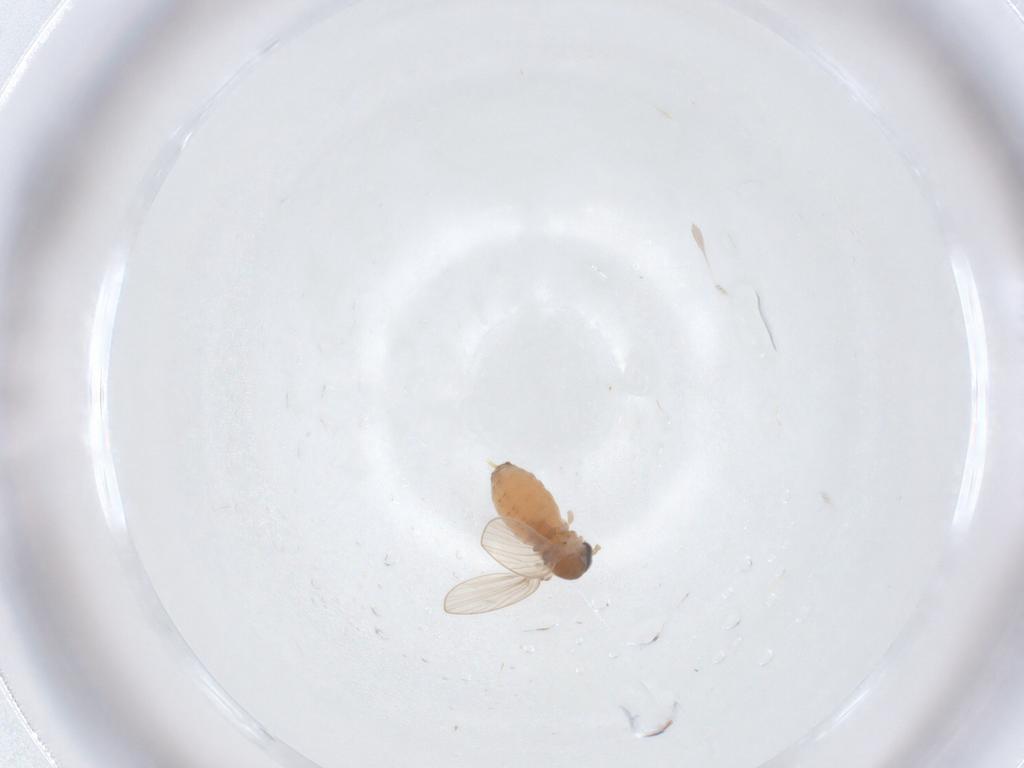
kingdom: Animalia
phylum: Arthropoda
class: Insecta
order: Diptera
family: Psychodidae
